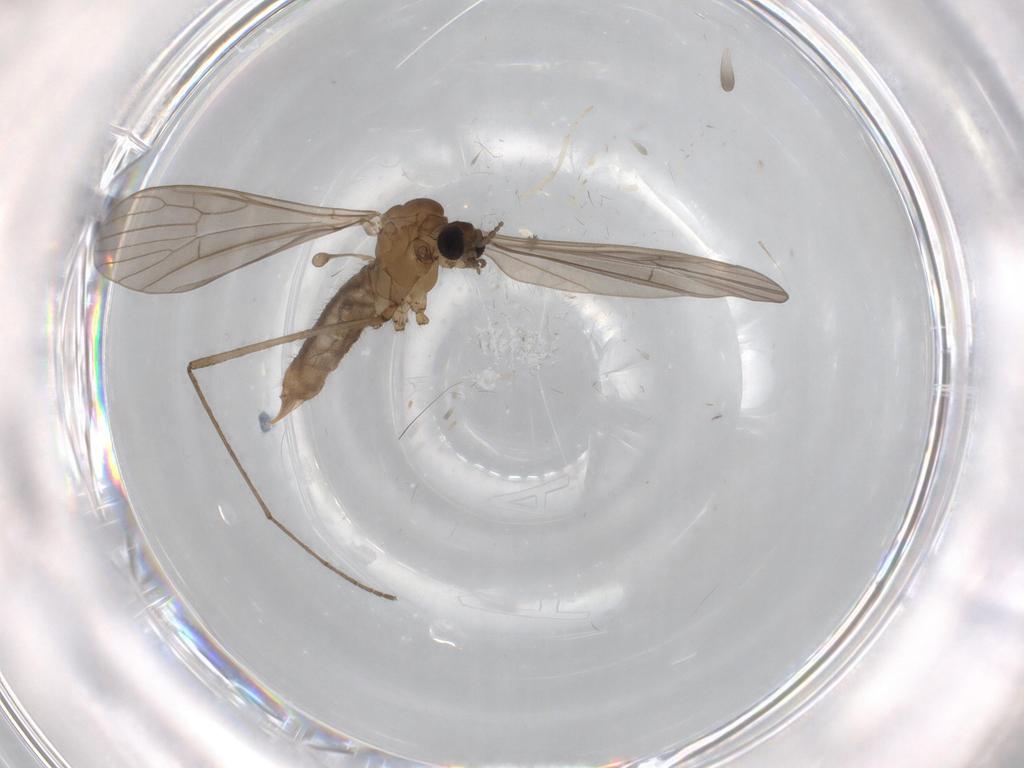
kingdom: Animalia
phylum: Arthropoda
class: Insecta
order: Diptera
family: Limoniidae
